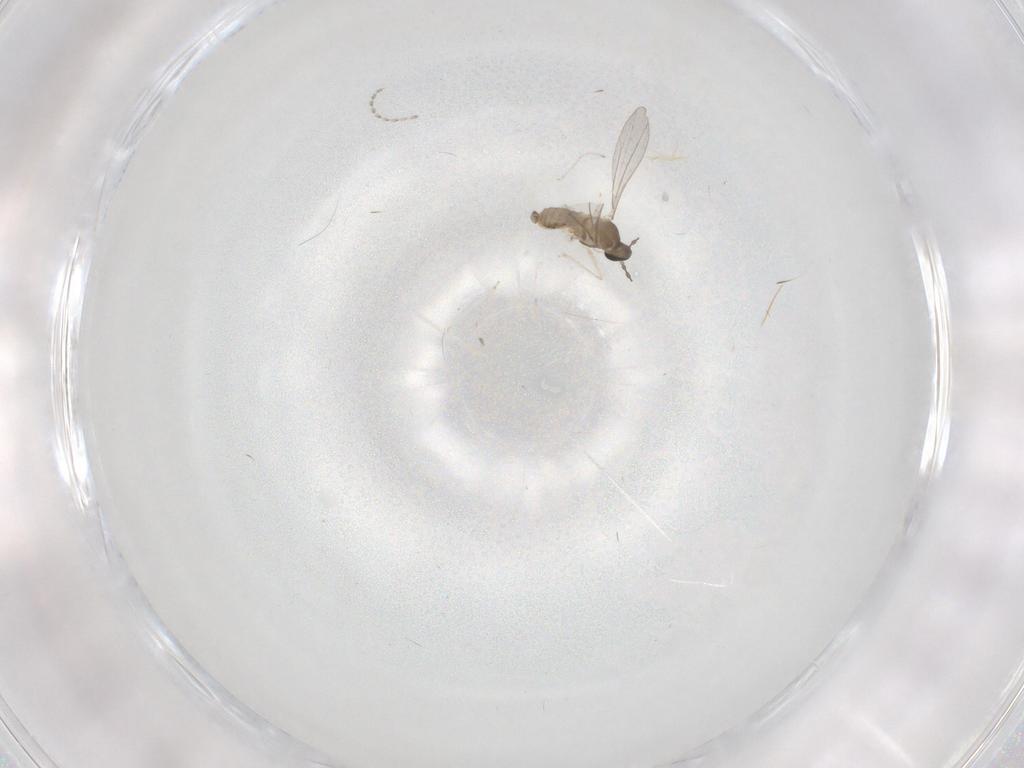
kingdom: Animalia
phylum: Arthropoda
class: Insecta
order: Diptera
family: Cecidomyiidae
